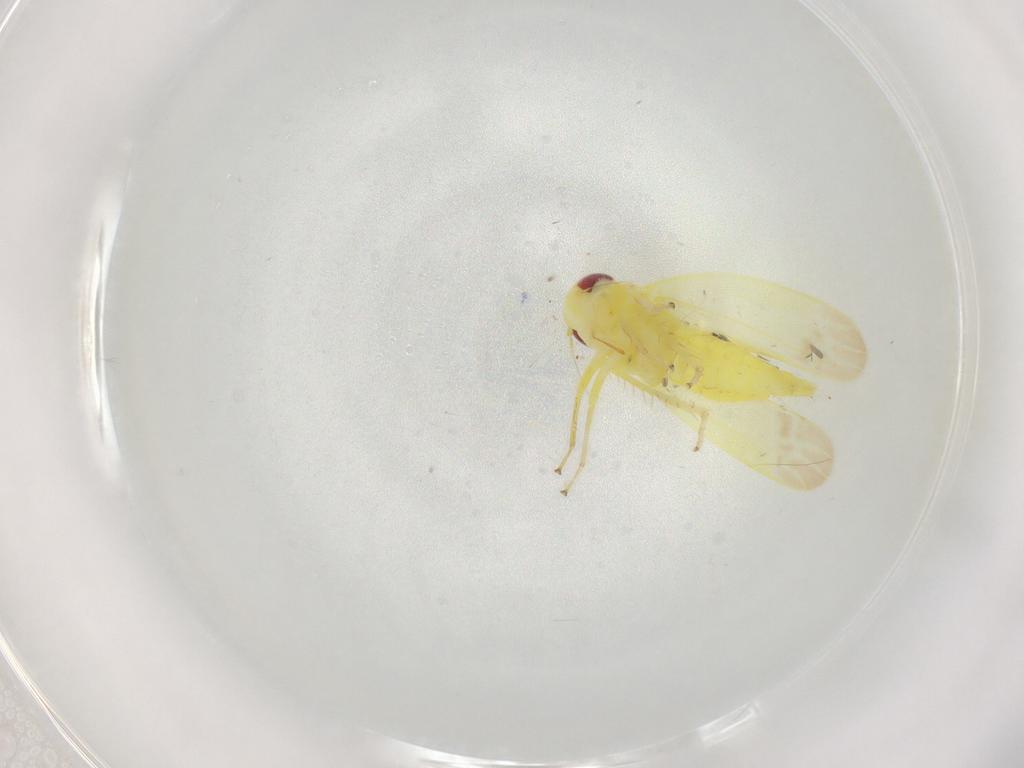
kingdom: Animalia
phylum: Arthropoda
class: Insecta
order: Hemiptera
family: Cicadellidae
